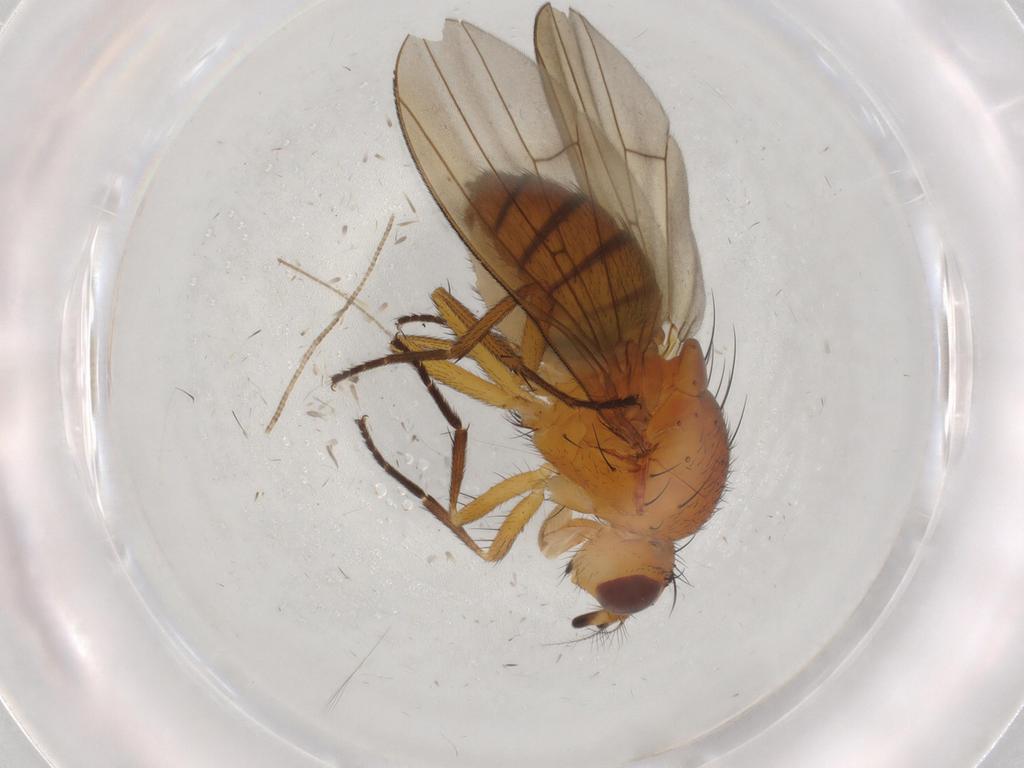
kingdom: Animalia
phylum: Arthropoda
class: Insecta
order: Diptera
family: Lauxaniidae
